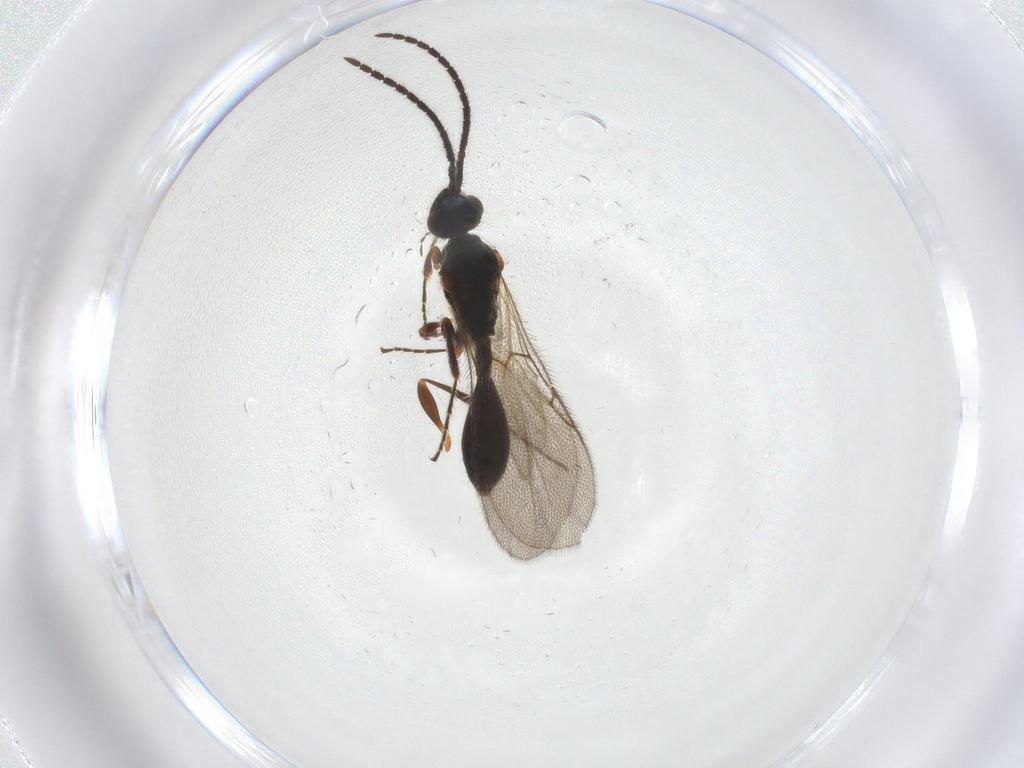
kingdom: Animalia
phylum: Arthropoda
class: Insecta
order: Hymenoptera
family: Diapriidae
